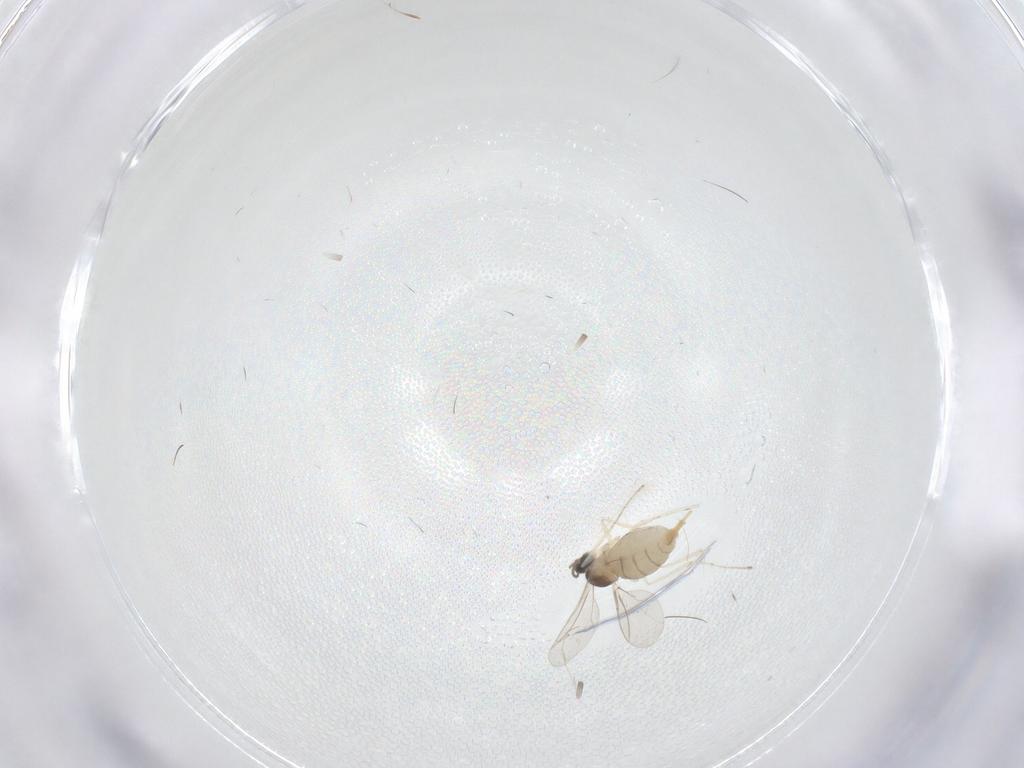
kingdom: Animalia
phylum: Arthropoda
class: Insecta
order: Diptera
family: Cecidomyiidae
